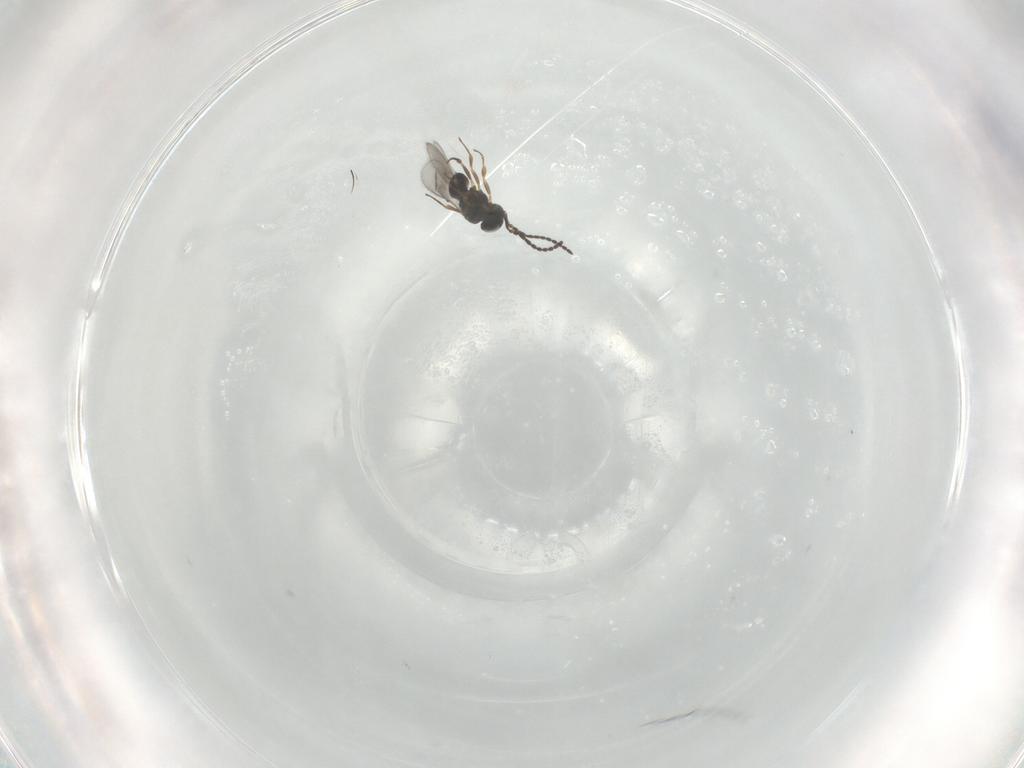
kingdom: Animalia
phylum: Arthropoda
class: Insecta
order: Hymenoptera
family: Scelionidae
